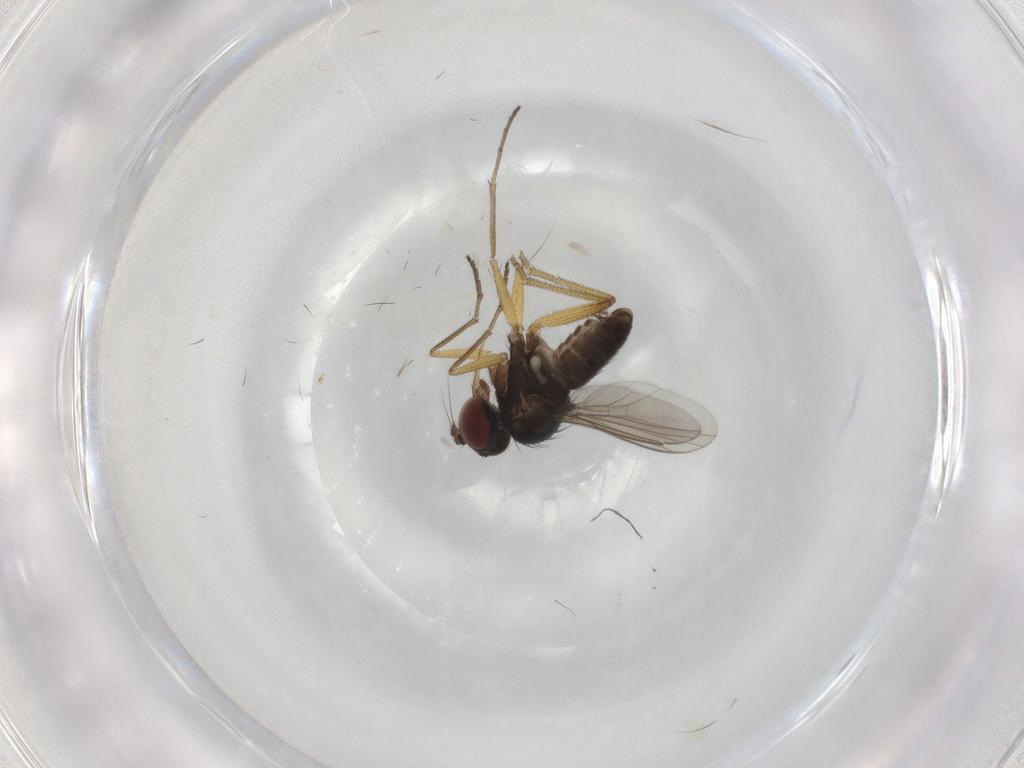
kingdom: Animalia
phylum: Arthropoda
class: Insecta
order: Diptera
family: Dolichopodidae
